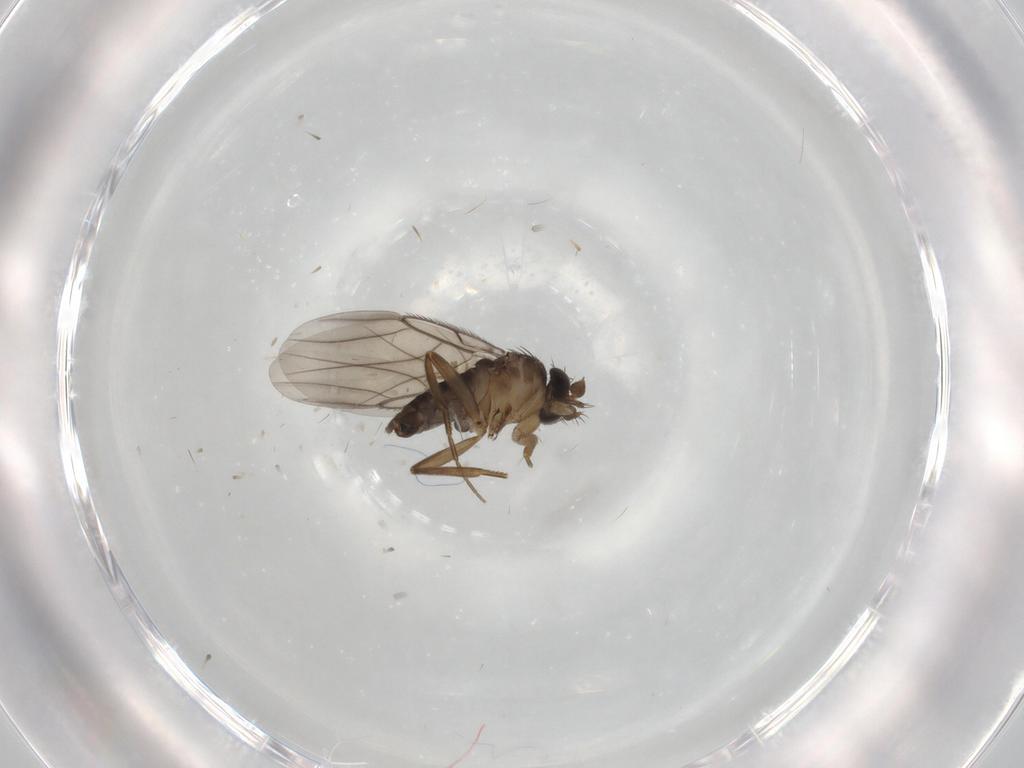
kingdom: Animalia
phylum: Arthropoda
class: Insecta
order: Diptera
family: Phoridae
